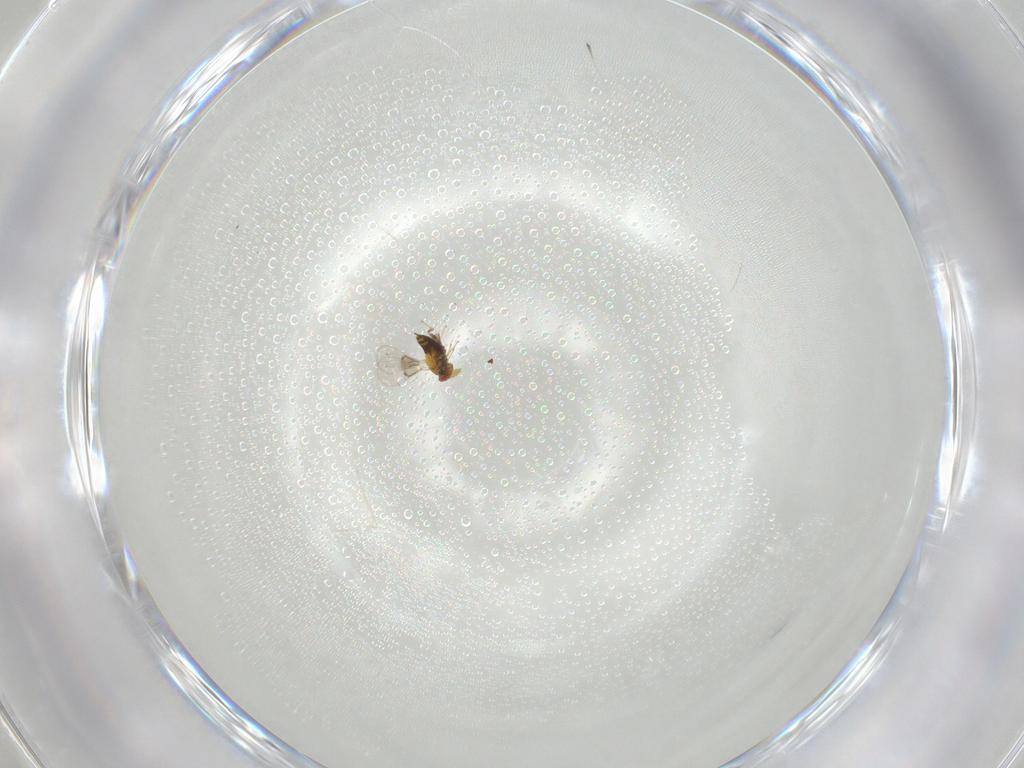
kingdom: Animalia
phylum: Arthropoda
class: Insecta
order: Hymenoptera
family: Trichogrammatidae
